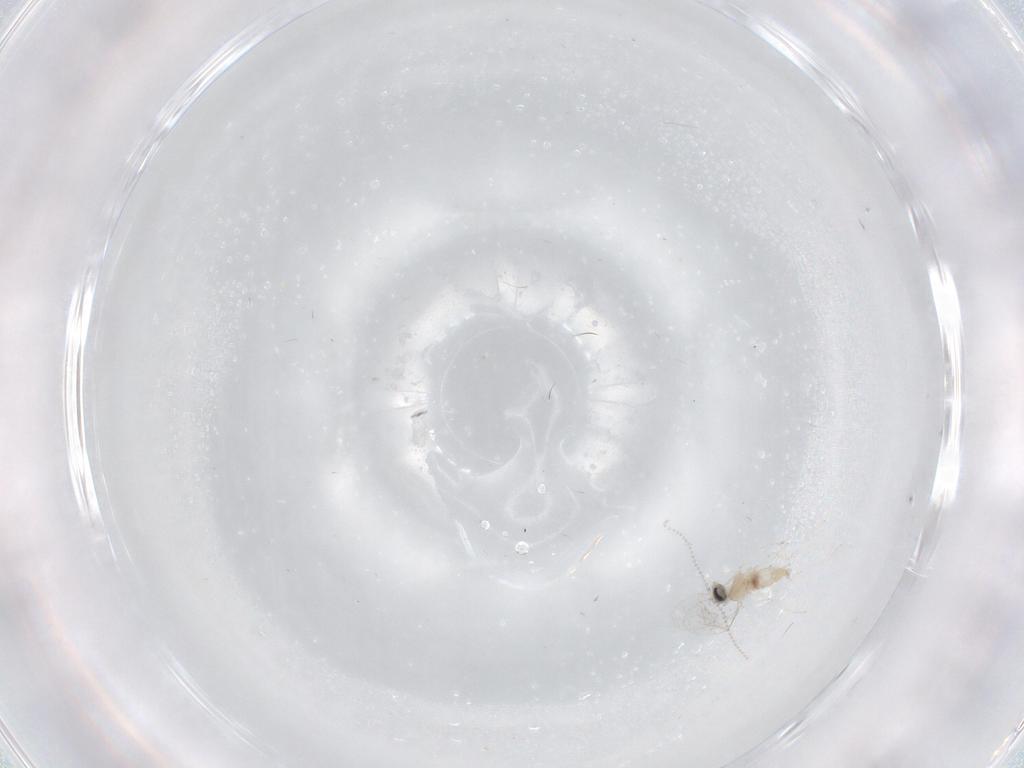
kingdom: Animalia
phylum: Arthropoda
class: Insecta
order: Diptera
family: Cecidomyiidae
